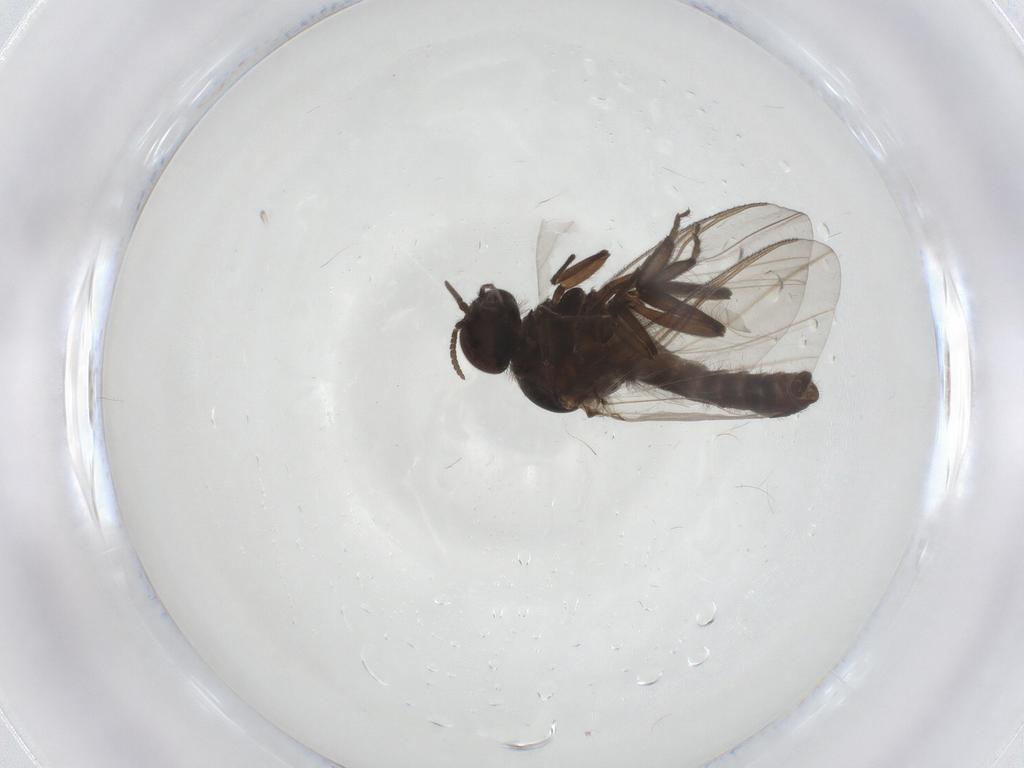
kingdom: Animalia
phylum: Arthropoda
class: Insecta
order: Diptera
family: Simuliidae
